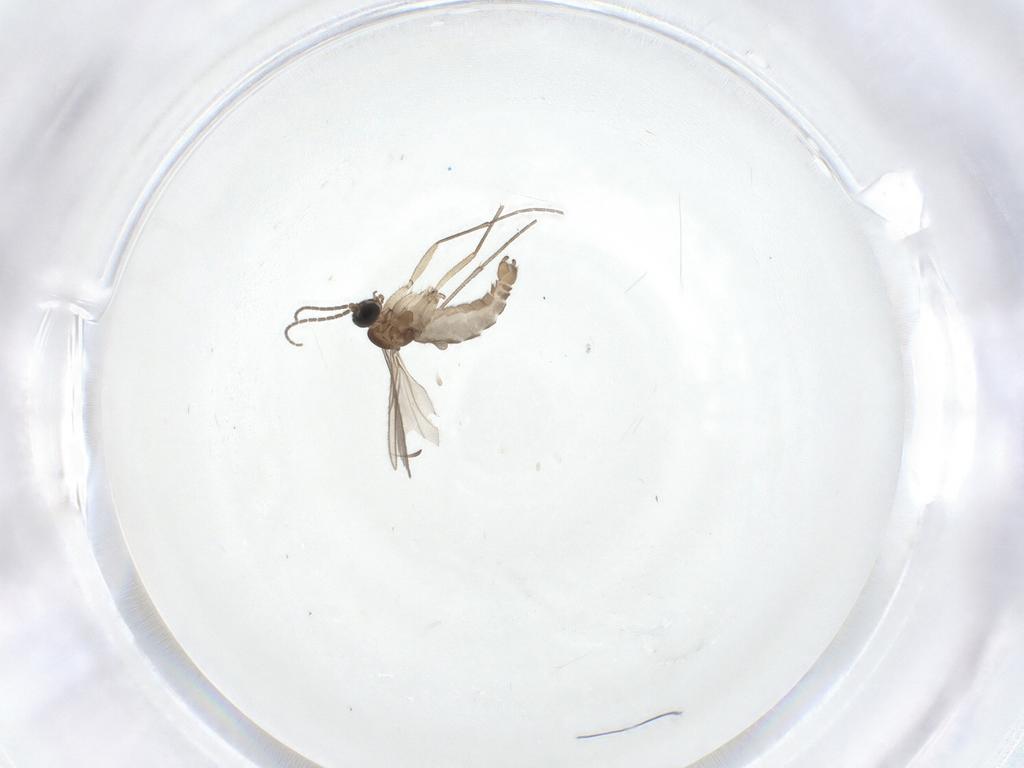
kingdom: Animalia
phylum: Arthropoda
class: Insecta
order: Diptera
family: Sciaridae
